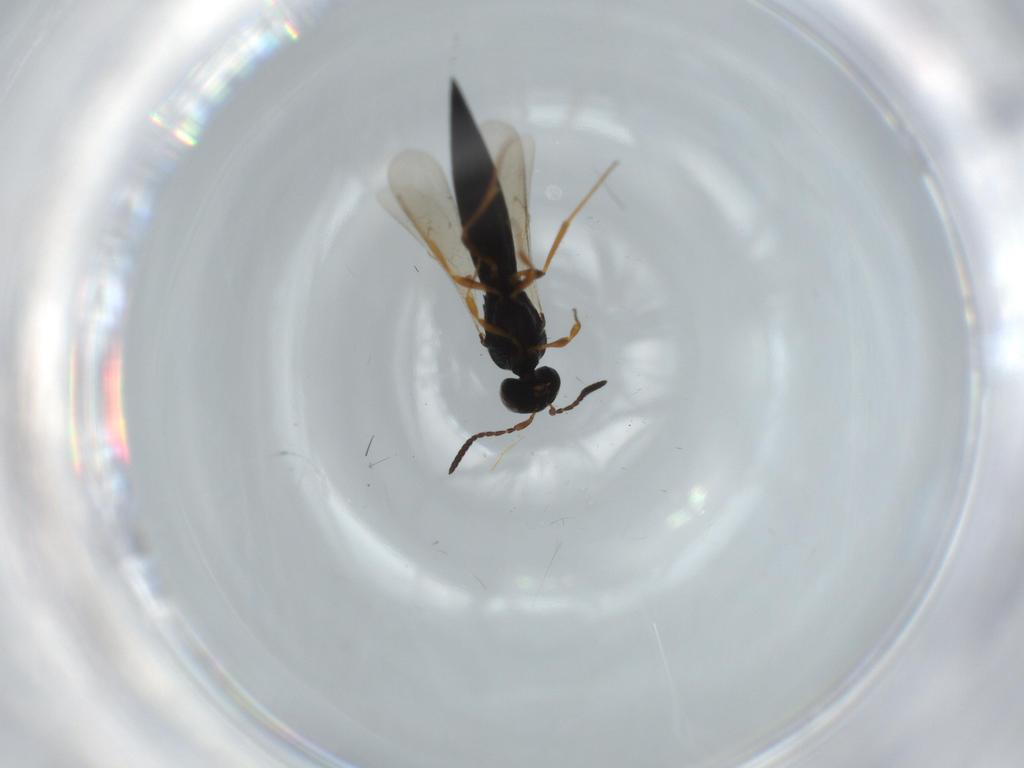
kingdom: Animalia
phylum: Arthropoda
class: Insecta
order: Hymenoptera
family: Scelionidae
